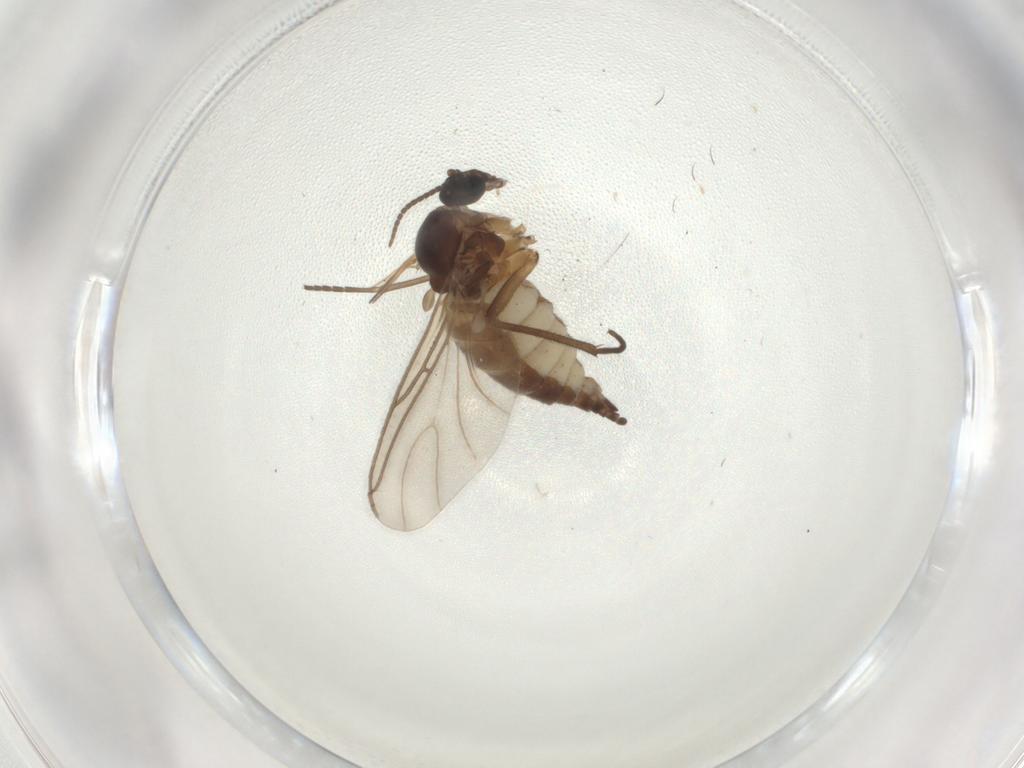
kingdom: Animalia
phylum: Arthropoda
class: Insecta
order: Diptera
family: Sciaridae
